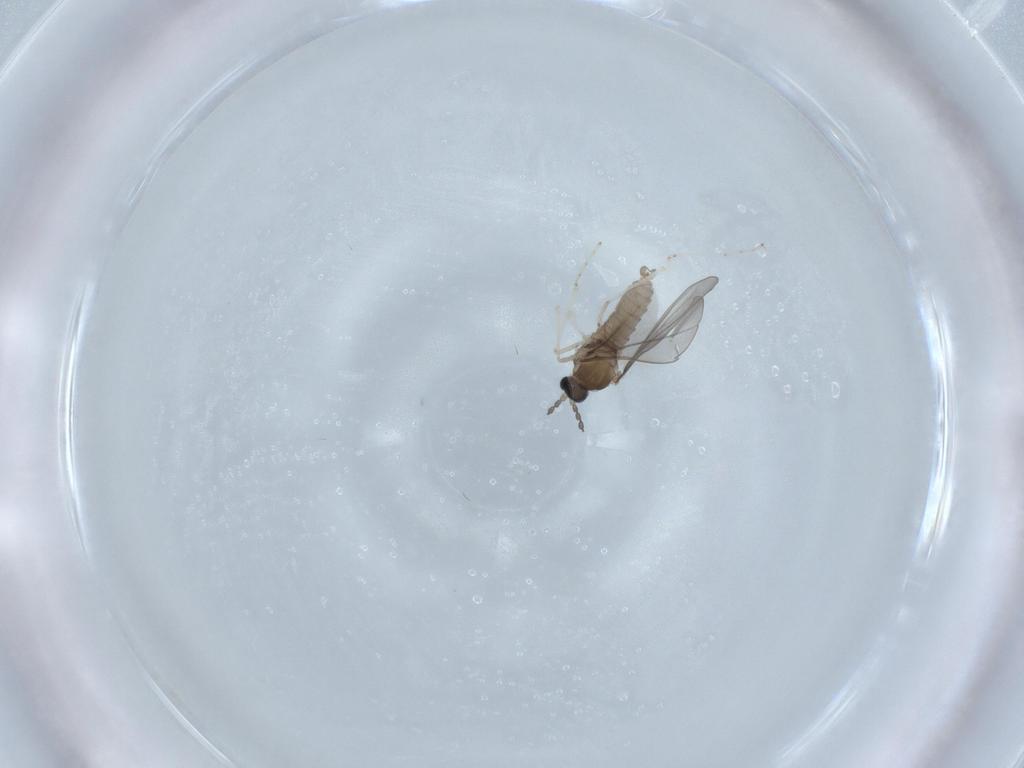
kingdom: Animalia
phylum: Arthropoda
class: Insecta
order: Diptera
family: Cecidomyiidae
